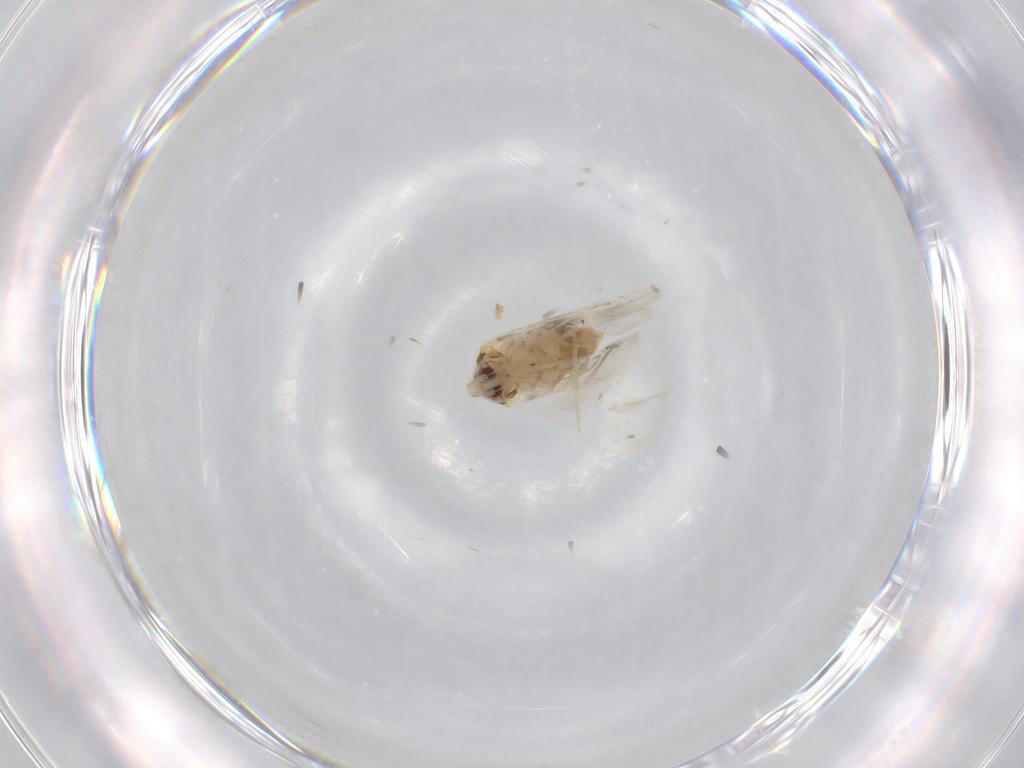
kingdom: Animalia
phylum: Arthropoda
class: Insecta
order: Hemiptera
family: Aleyrodidae
